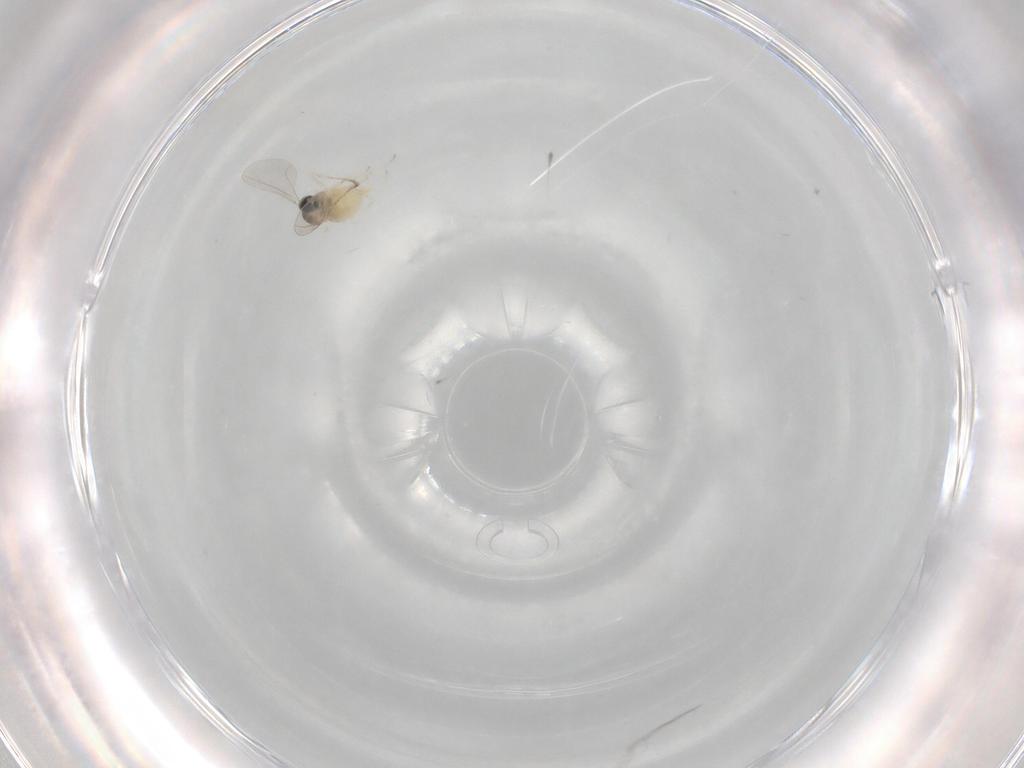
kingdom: Animalia
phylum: Arthropoda
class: Insecta
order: Diptera
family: Cecidomyiidae
